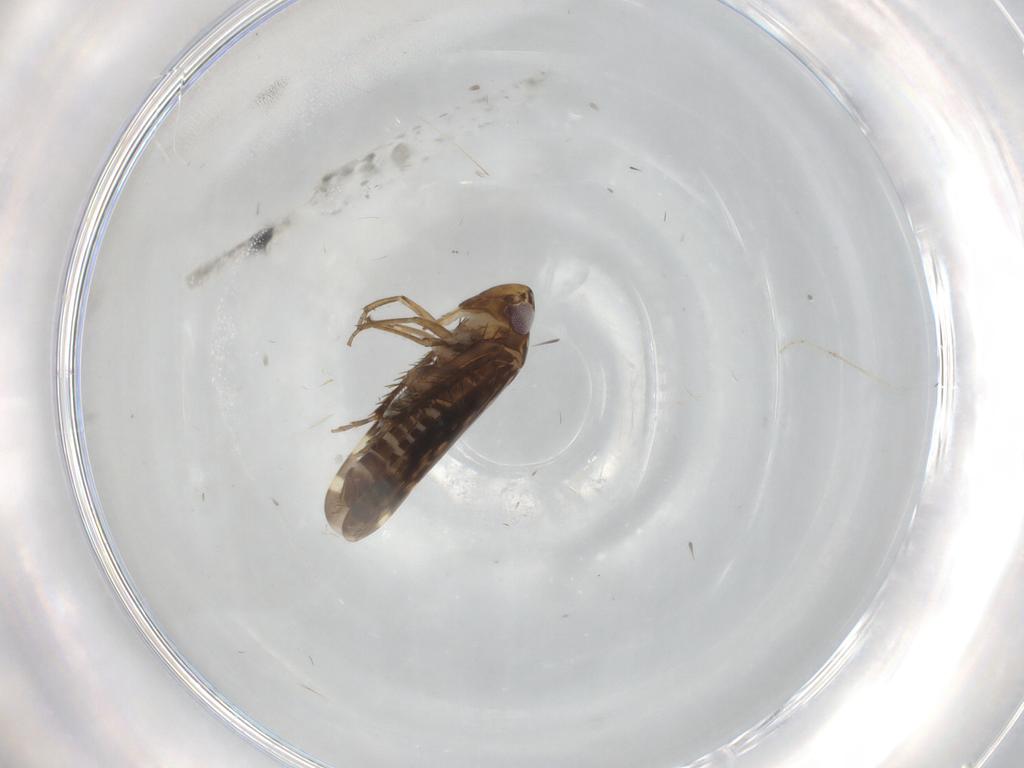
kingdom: Animalia
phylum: Arthropoda
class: Insecta
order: Hemiptera
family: Cicadellidae
